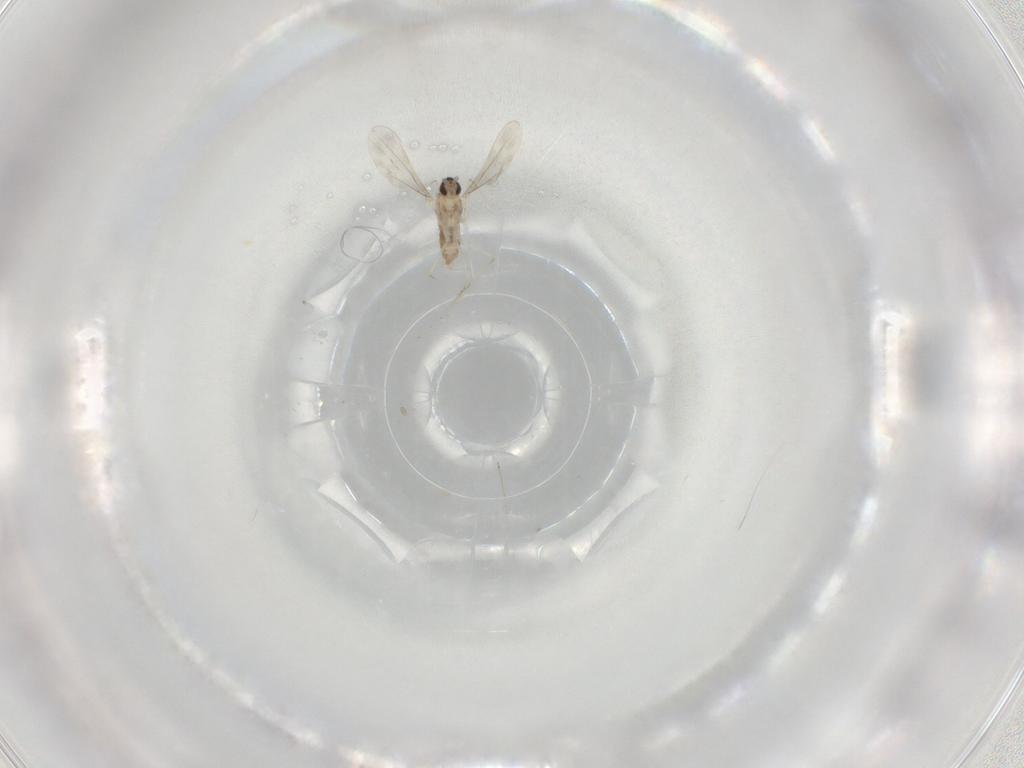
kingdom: Animalia
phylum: Arthropoda
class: Insecta
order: Diptera
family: Cecidomyiidae
